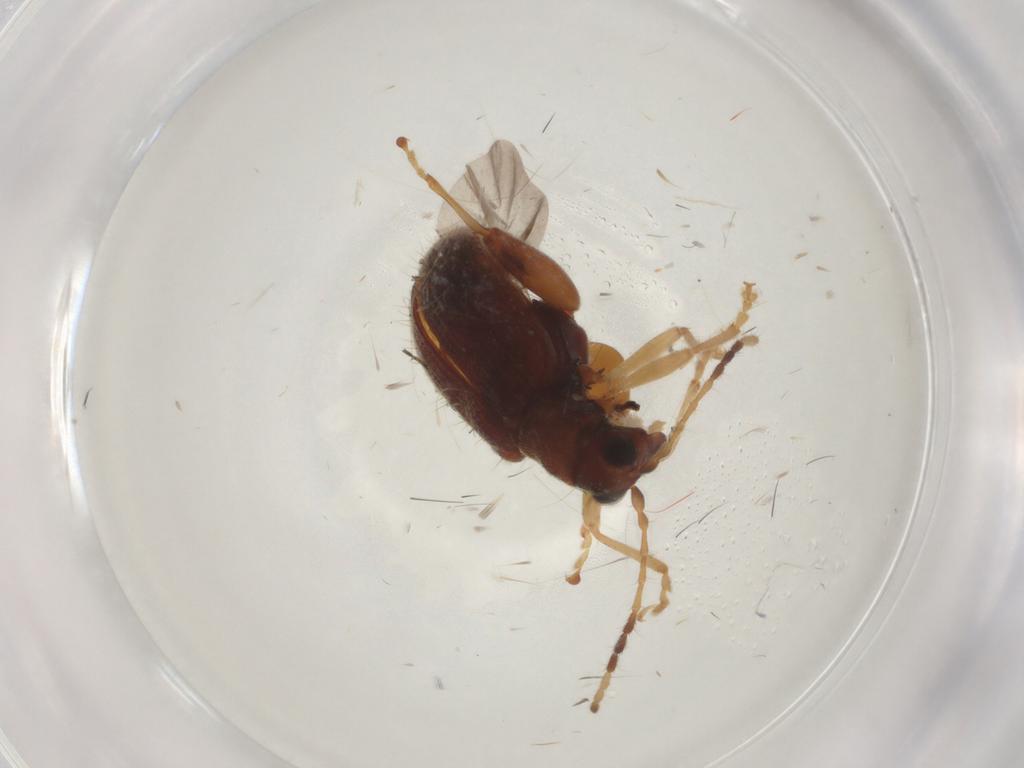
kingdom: Animalia
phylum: Arthropoda
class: Insecta
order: Coleoptera
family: Chrysomelidae
